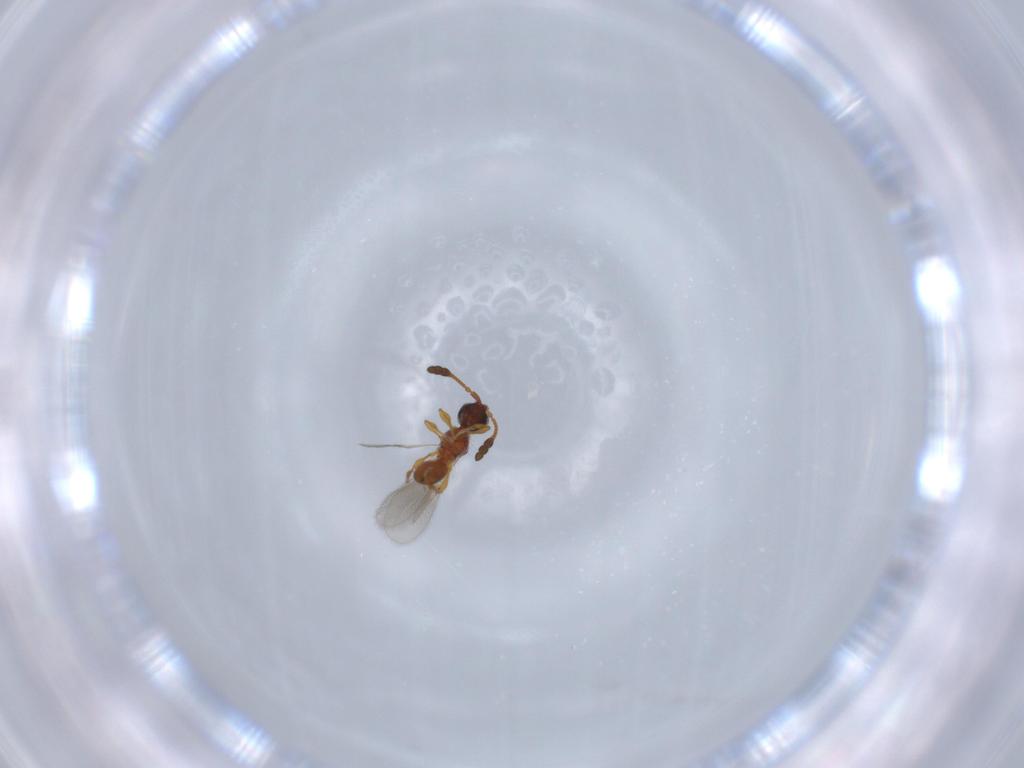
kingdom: Animalia
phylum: Arthropoda
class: Insecta
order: Hymenoptera
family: Diapriidae
